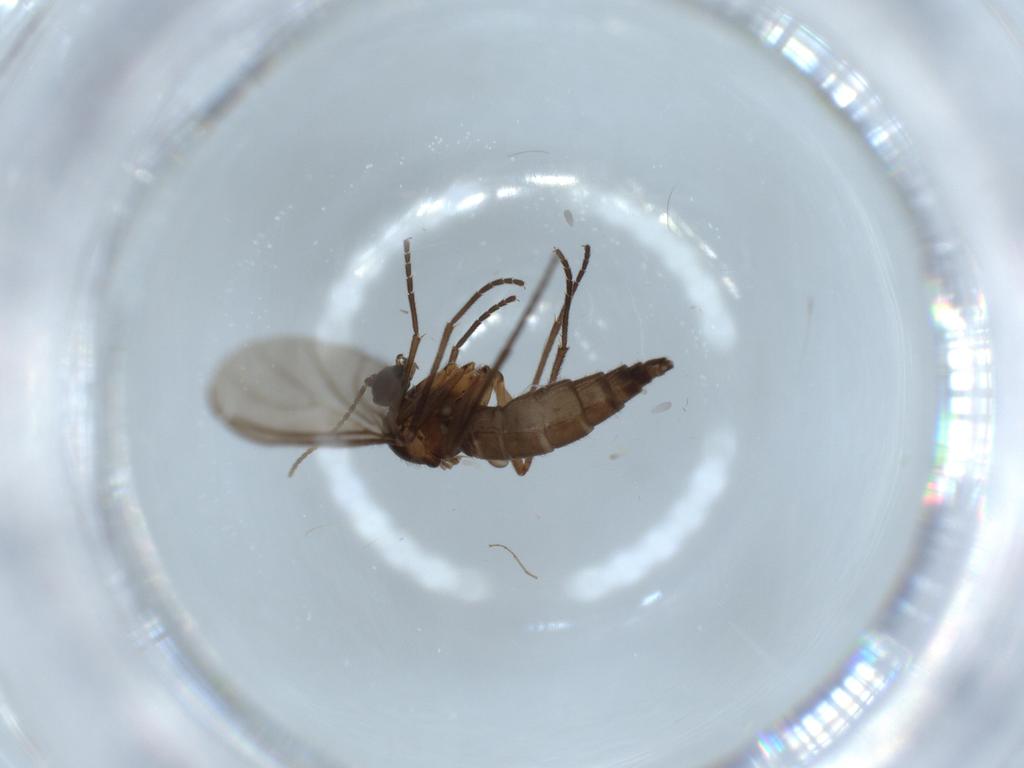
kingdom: Animalia
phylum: Arthropoda
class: Insecta
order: Diptera
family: Sciaridae
